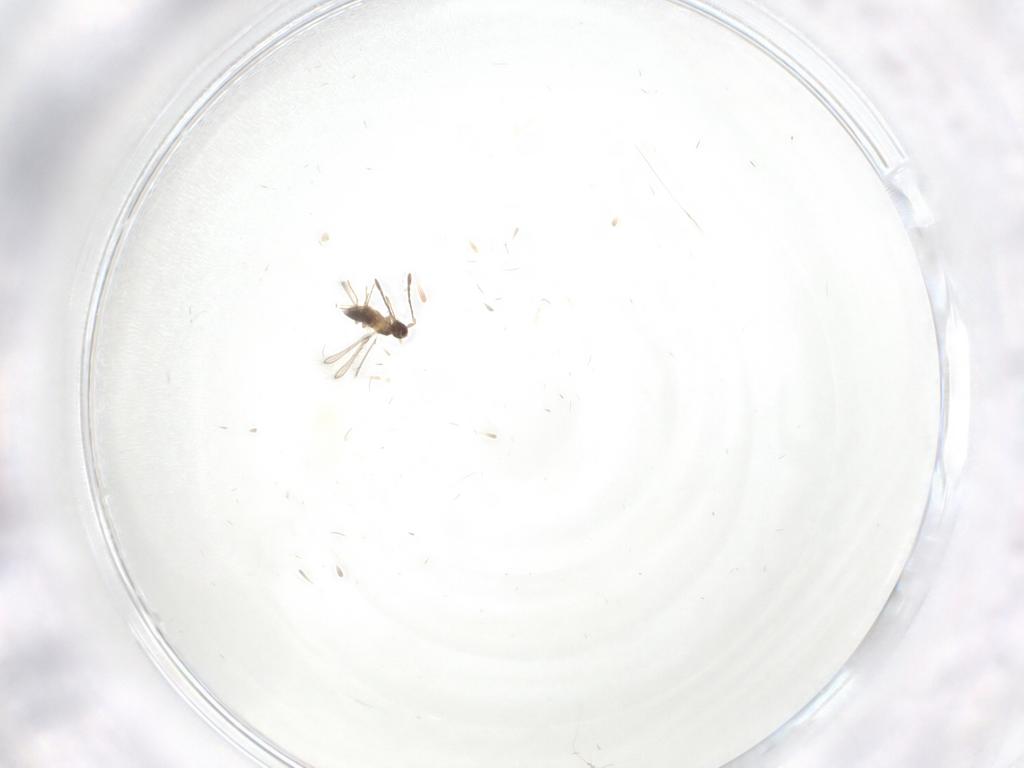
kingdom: Animalia
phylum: Arthropoda
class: Insecta
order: Hymenoptera
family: Mymaridae
